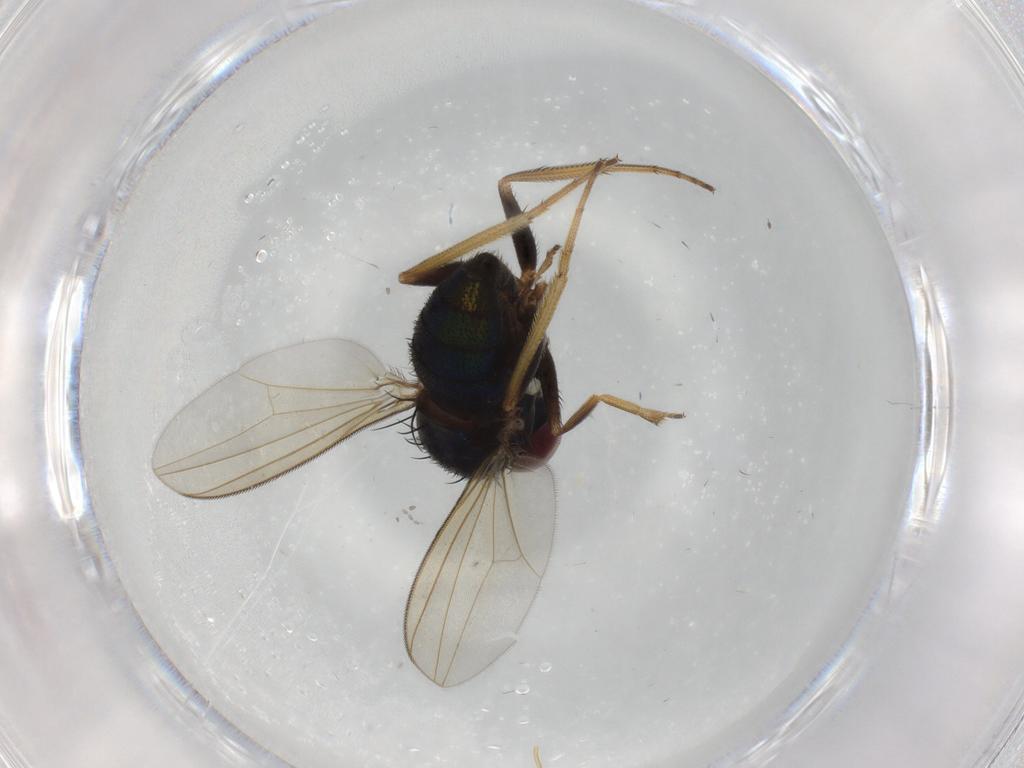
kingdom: Animalia
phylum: Arthropoda
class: Insecta
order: Diptera
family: Dolichopodidae
